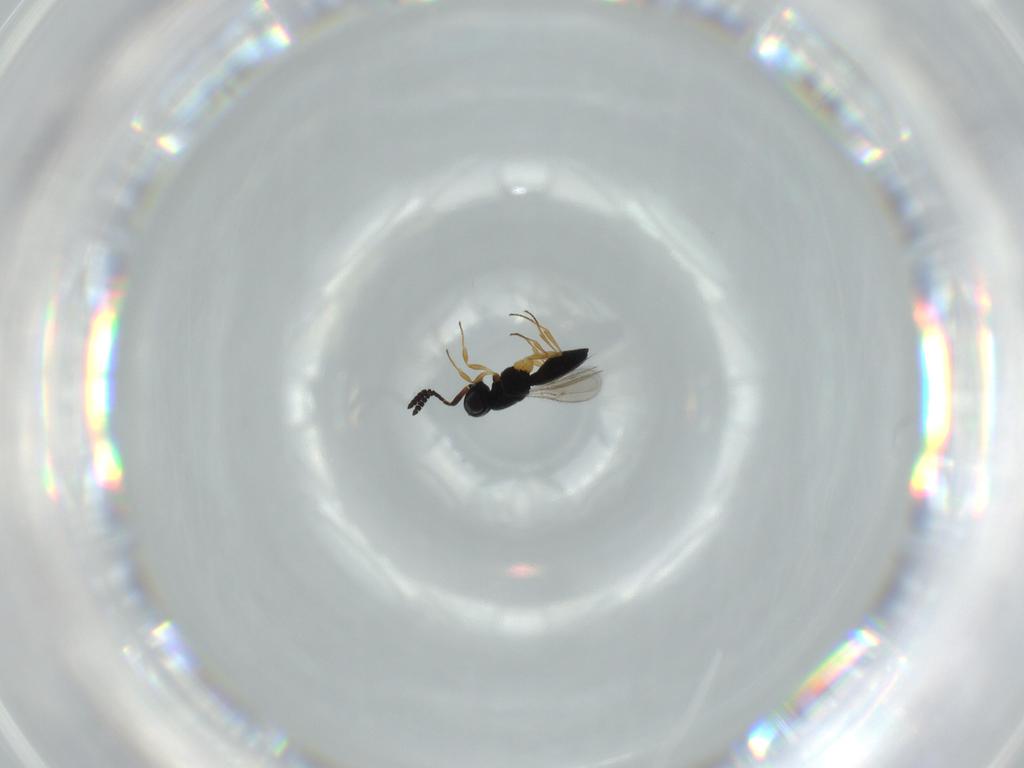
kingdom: Animalia
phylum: Arthropoda
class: Insecta
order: Hymenoptera
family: Scelionidae
